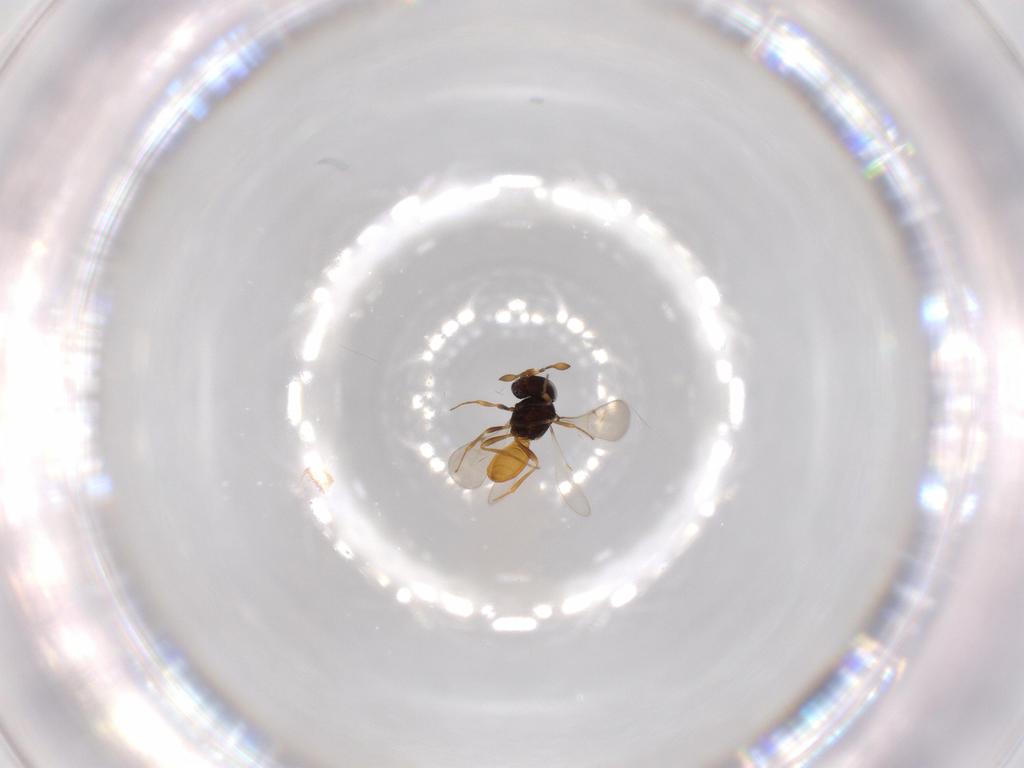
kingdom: Animalia
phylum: Arthropoda
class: Insecta
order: Hymenoptera
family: Scelionidae
